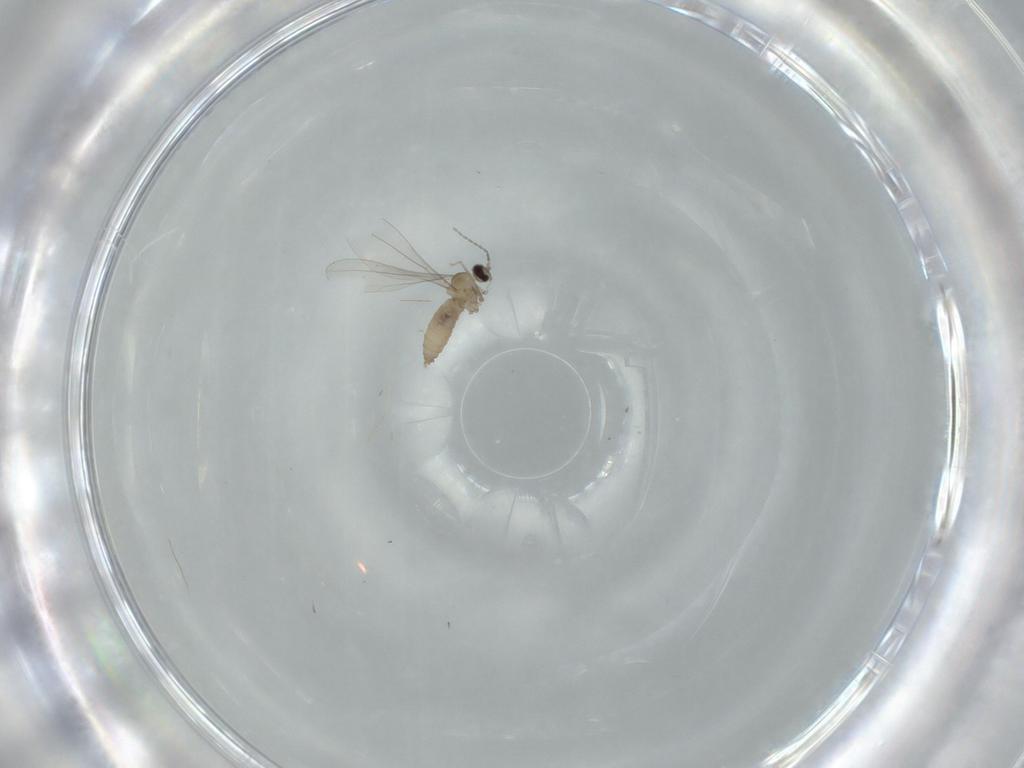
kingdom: Animalia
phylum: Arthropoda
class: Insecta
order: Diptera
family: Cecidomyiidae
